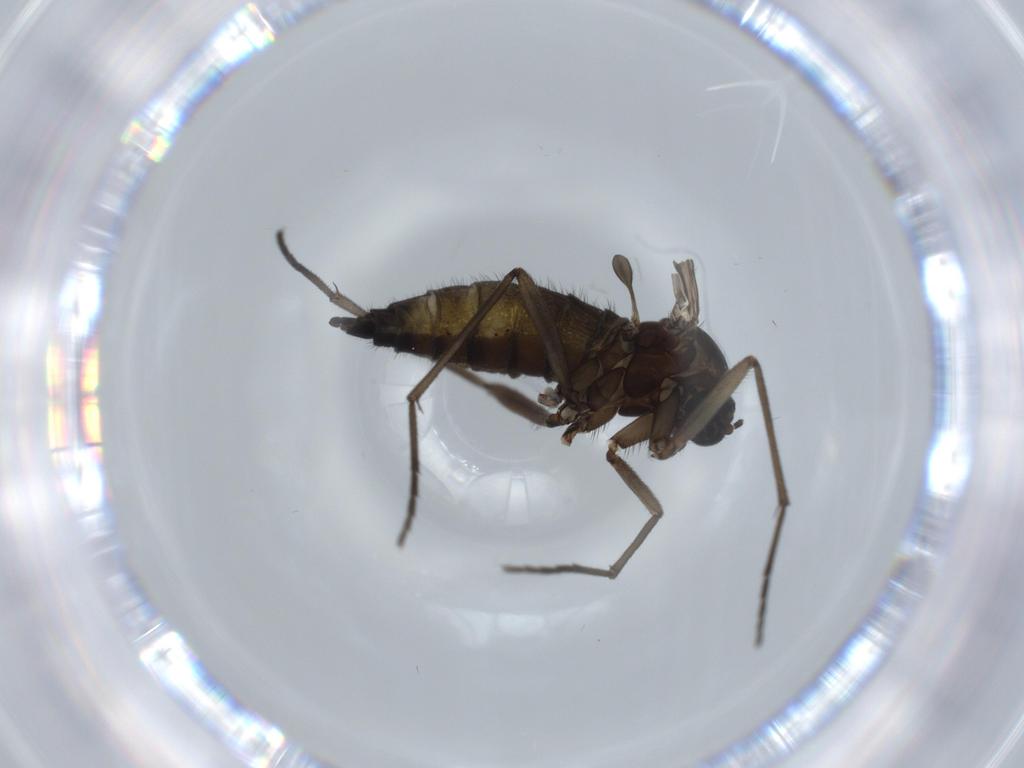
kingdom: Animalia
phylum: Arthropoda
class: Insecta
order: Diptera
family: Sciaridae
